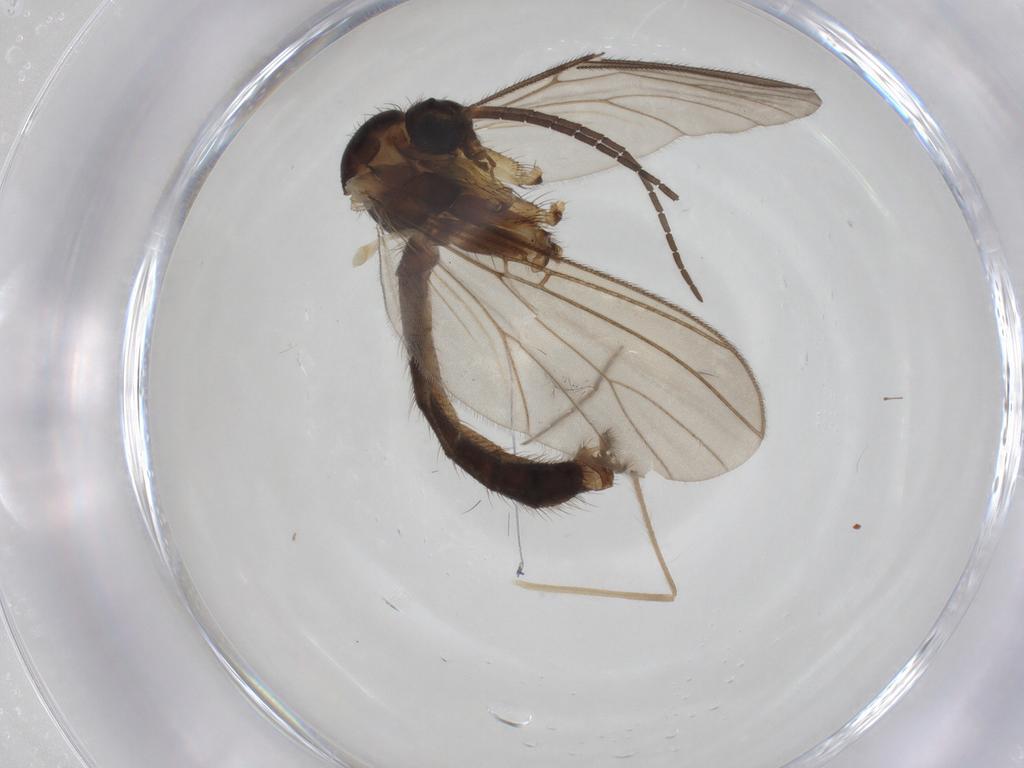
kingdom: Animalia
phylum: Arthropoda
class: Insecta
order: Diptera
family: Mycetophilidae
